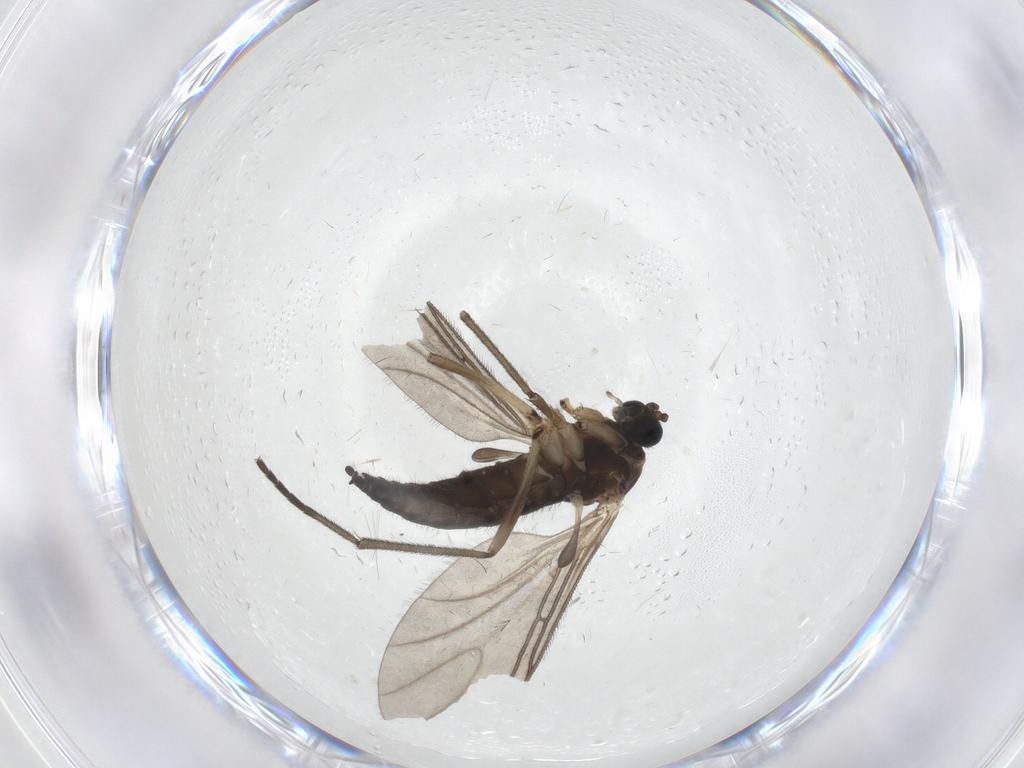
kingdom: Animalia
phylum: Arthropoda
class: Insecta
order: Diptera
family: Sciaridae
